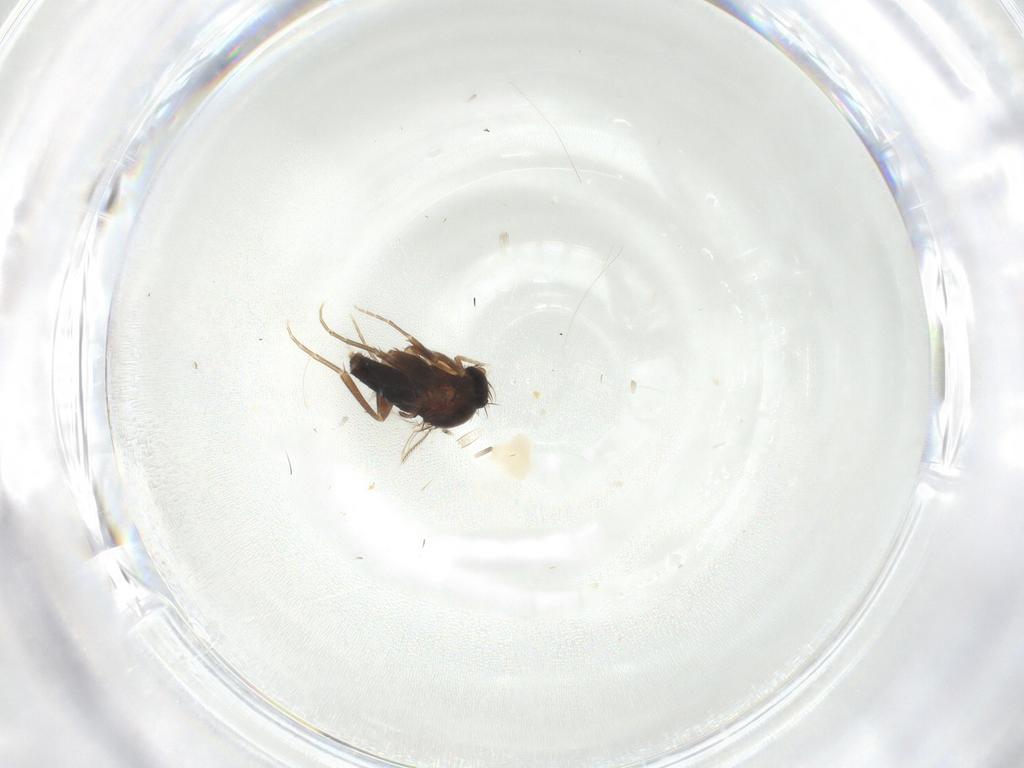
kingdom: Animalia
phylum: Arthropoda
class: Insecta
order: Diptera
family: Phoridae
